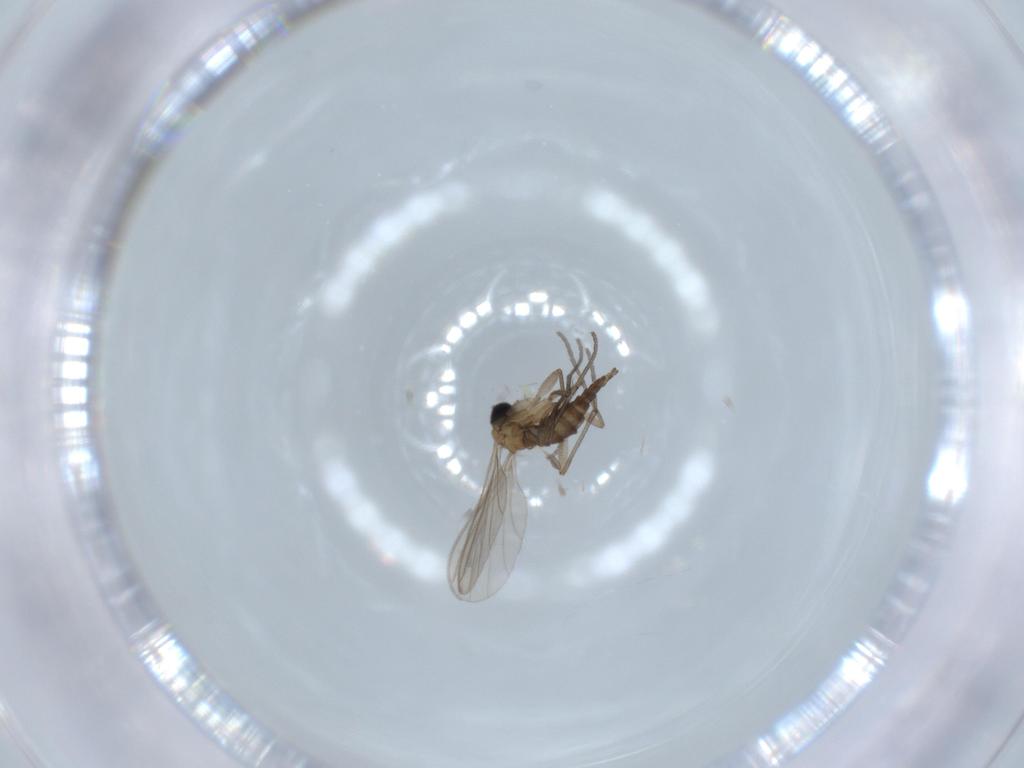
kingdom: Animalia
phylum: Arthropoda
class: Insecta
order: Diptera
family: Sciaridae
